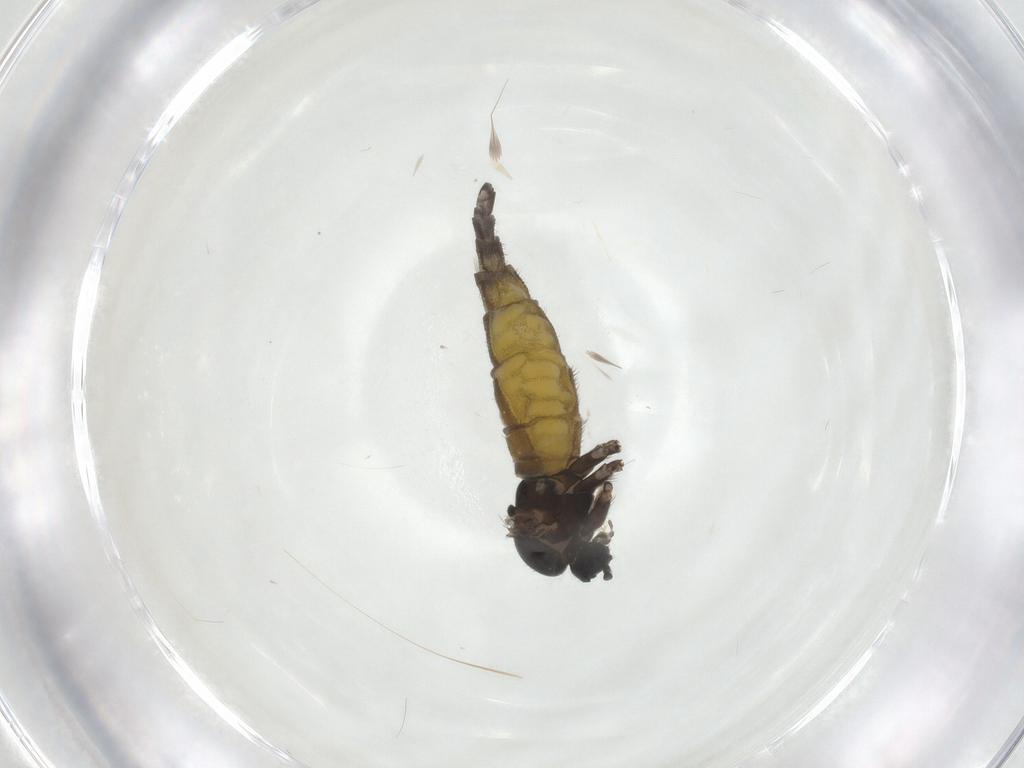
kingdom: Animalia
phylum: Arthropoda
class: Insecta
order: Diptera
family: Sciaridae
